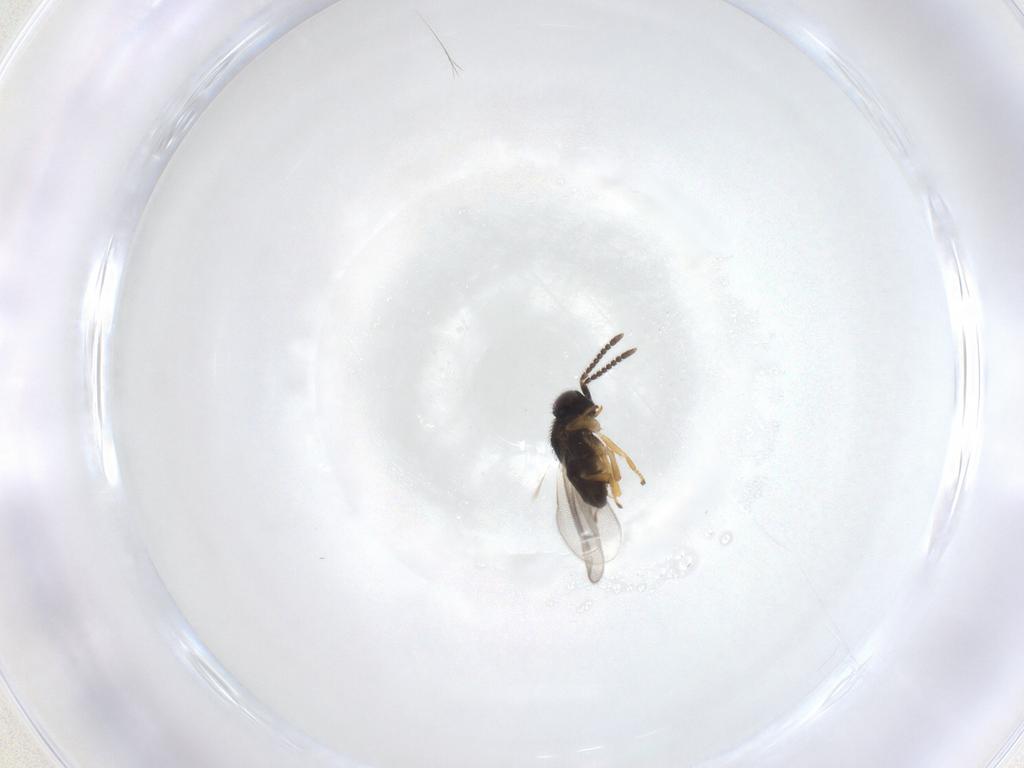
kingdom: Animalia
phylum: Arthropoda
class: Insecta
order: Hymenoptera
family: Encyrtidae
